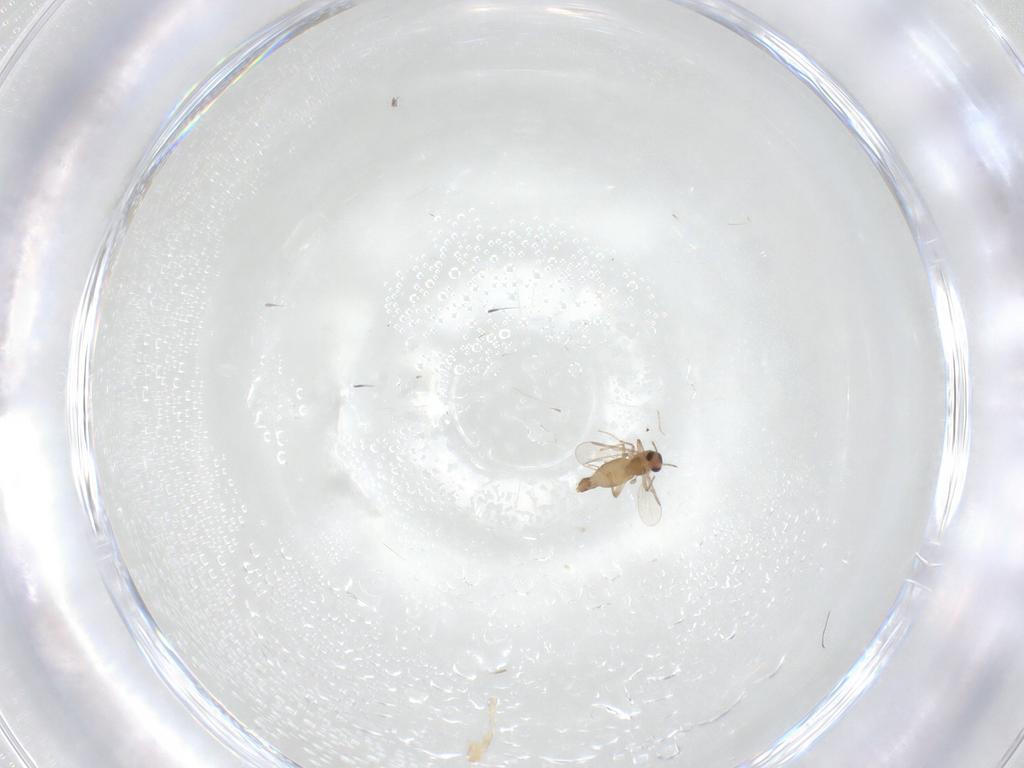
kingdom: Animalia
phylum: Arthropoda
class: Insecta
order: Diptera
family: Chironomidae
